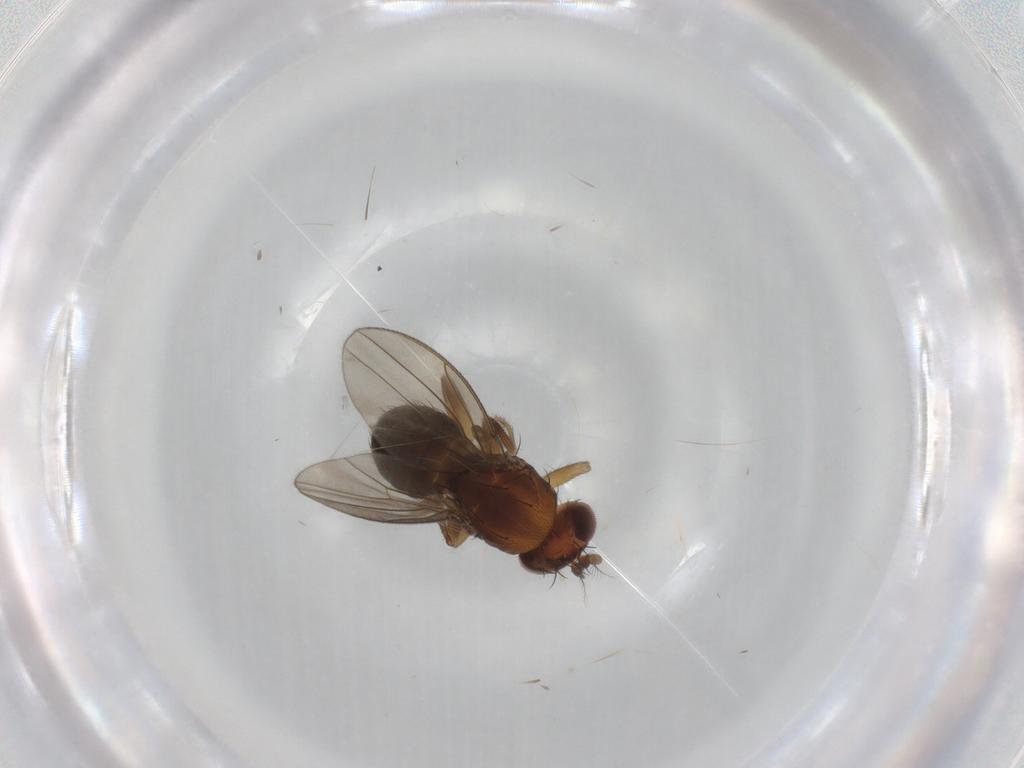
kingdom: Animalia
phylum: Arthropoda
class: Insecta
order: Diptera
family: Drosophilidae
